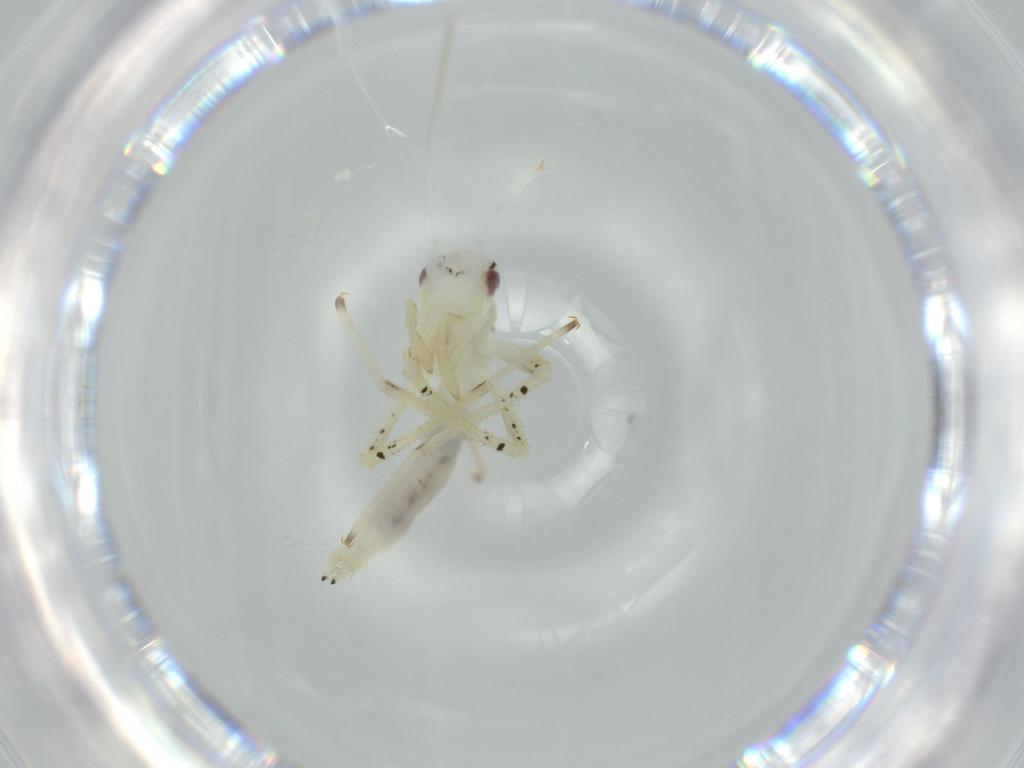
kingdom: Animalia
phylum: Arthropoda
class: Insecta
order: Orthoptera
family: Oecanthidae
